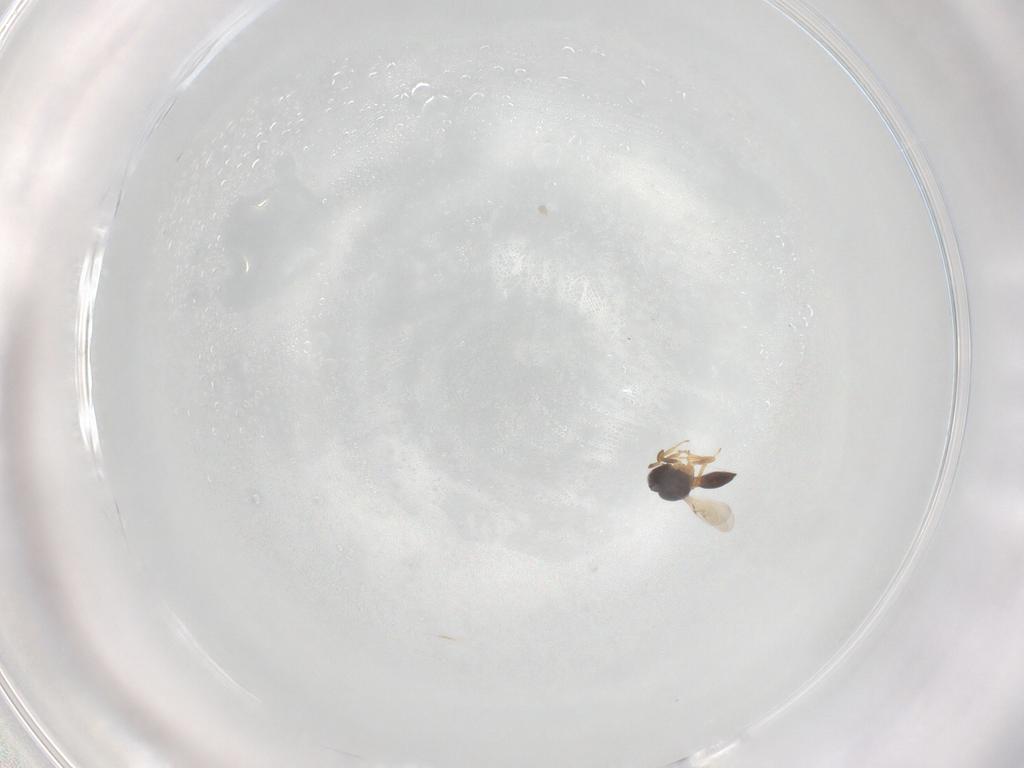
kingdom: Animalia
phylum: Arthropoda
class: Insecta
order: Hymenoptera
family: Scelionidae
